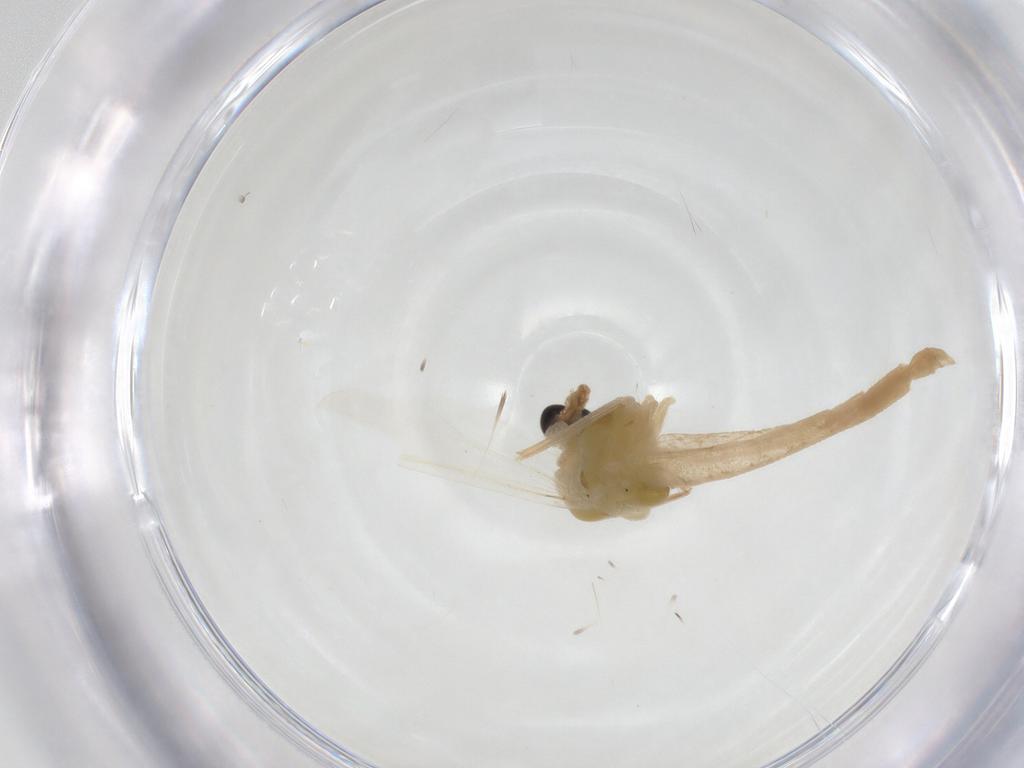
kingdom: Animalia
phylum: Arthropoda
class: Insecta
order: Diptera
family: Chironomidae
